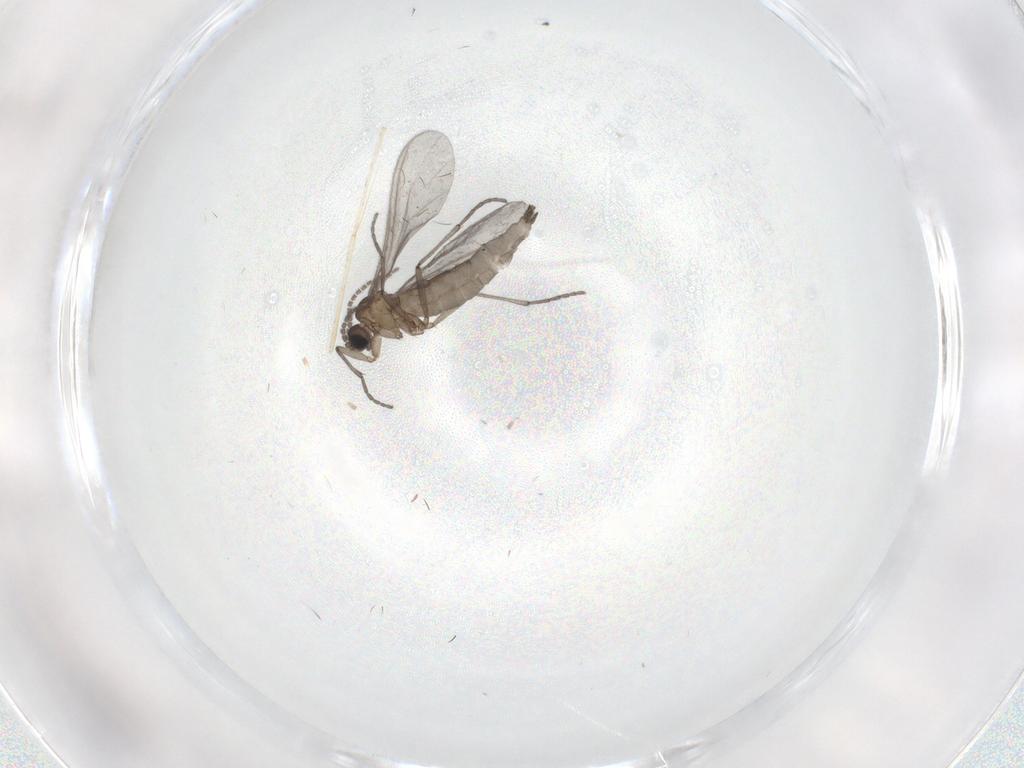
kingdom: Animalia
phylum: Arthropoda
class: Insecta
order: Diptera
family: Sciaridae
